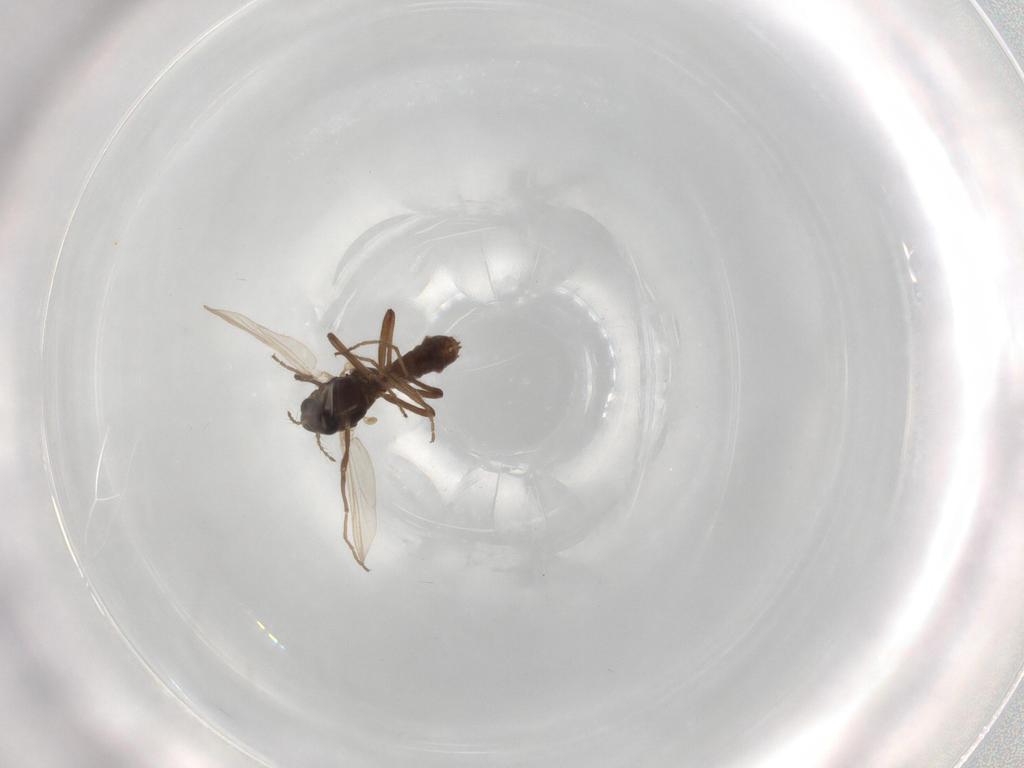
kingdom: Animalia
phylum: Arthropoda
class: Insecta
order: Diptera
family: Chironomidae
